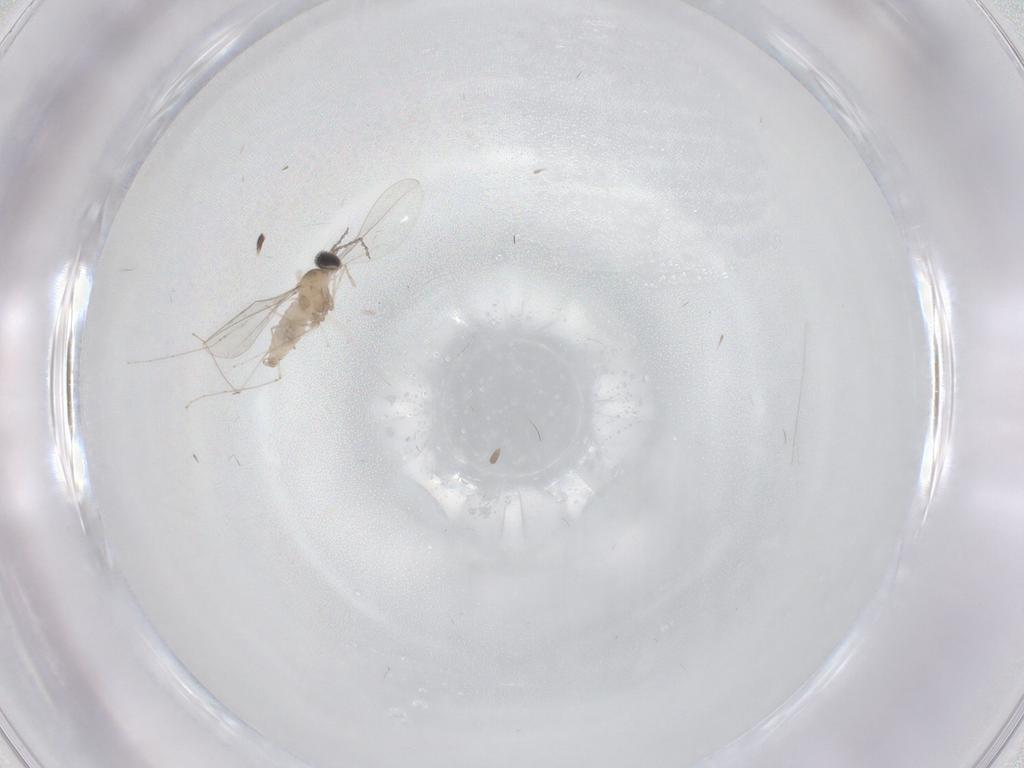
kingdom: Animalia
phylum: Arthropoda
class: Insecta
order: Diptera
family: Cecidomyiidae
